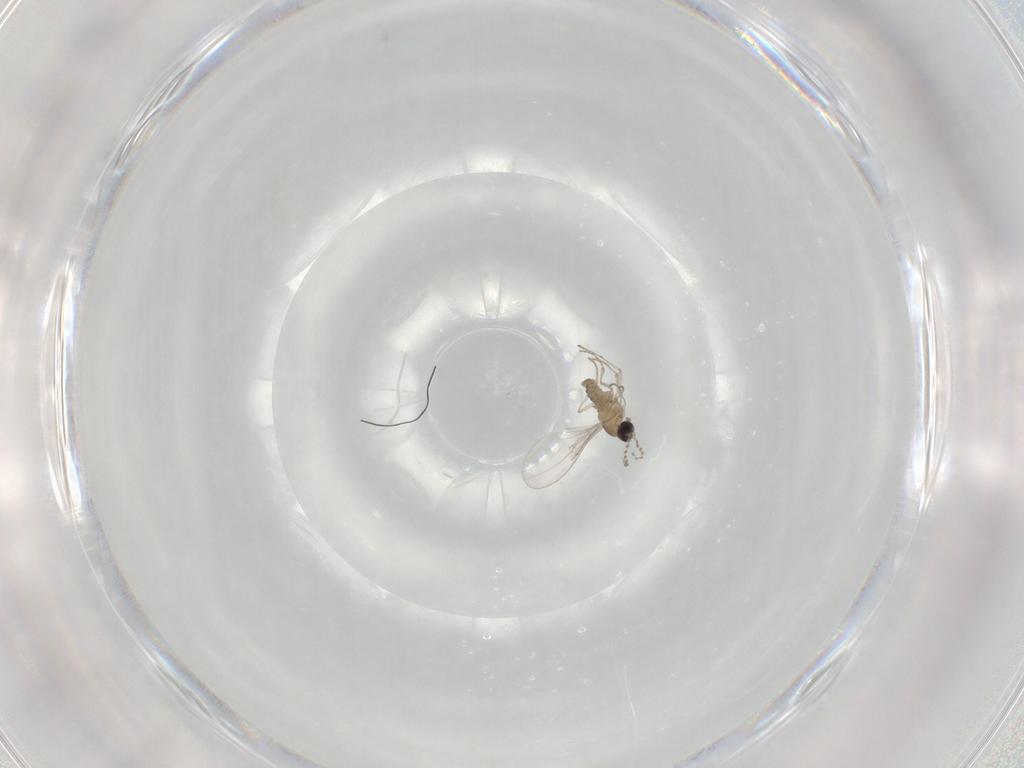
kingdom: Animalia
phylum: Arthropoda
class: Insecta
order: Diptera
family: Cecidomyiidae
